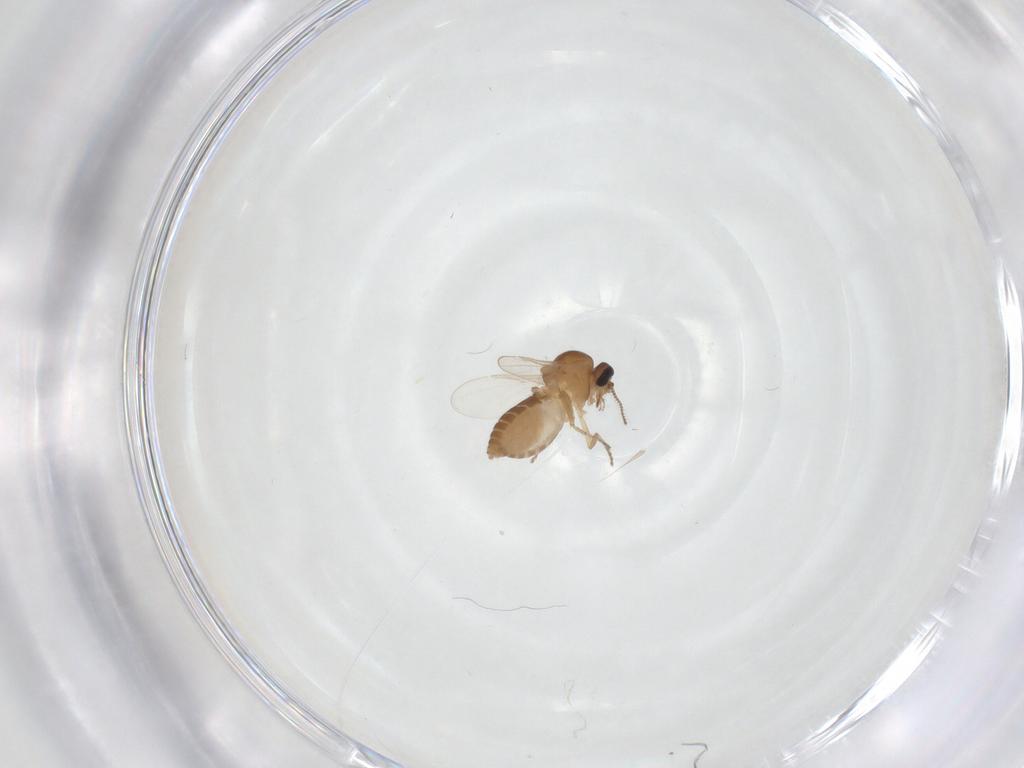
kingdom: Animalia
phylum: Arthropoda
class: Insecta
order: Diptera
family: Ceratopogonidae
